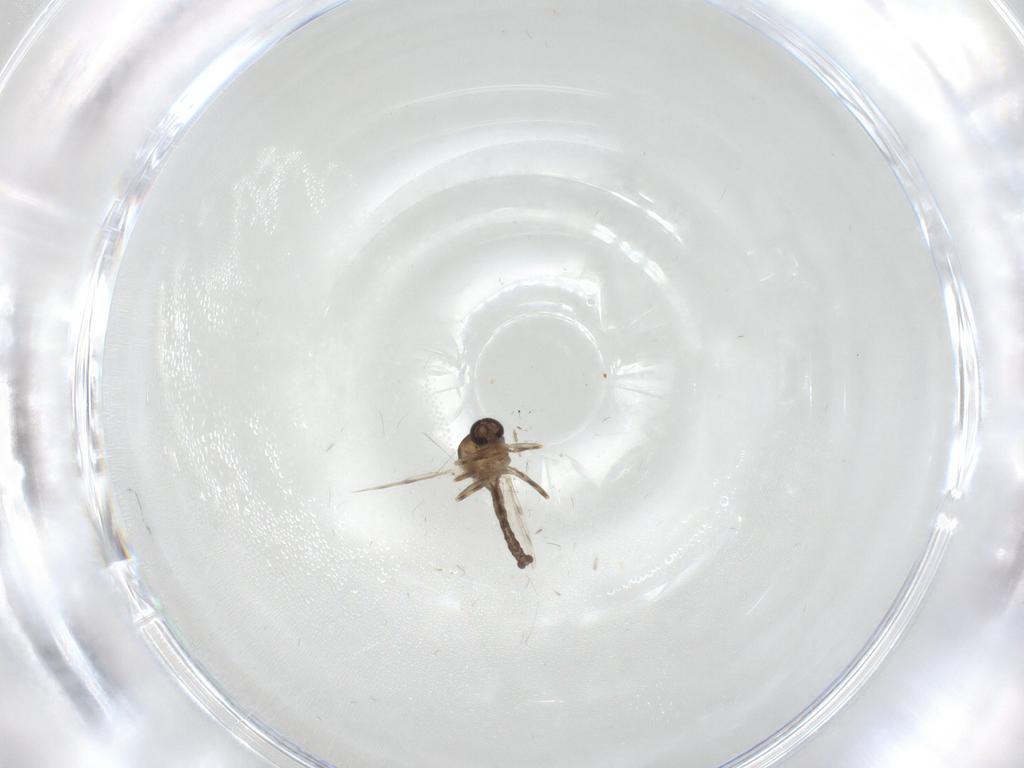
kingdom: Animalia
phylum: Arthropoda
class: Insecta
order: Diptera
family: Ceratopogonidae
